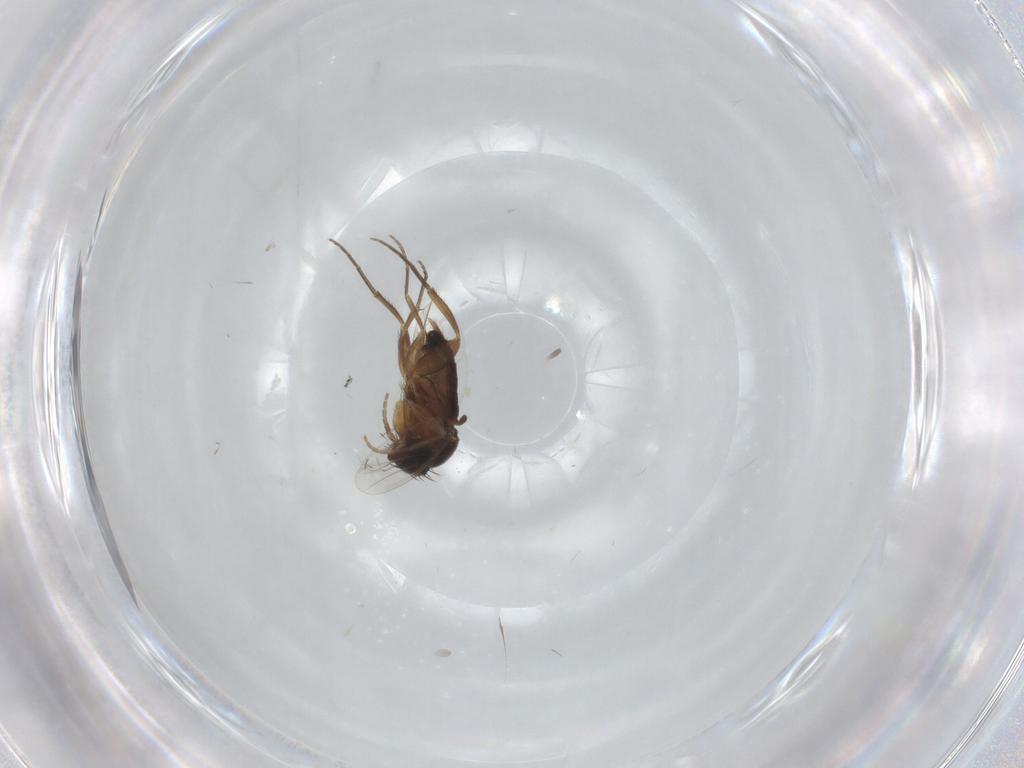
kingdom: Animalia
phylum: Arthropoda
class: Insecta
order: Diptera
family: Phoridae
